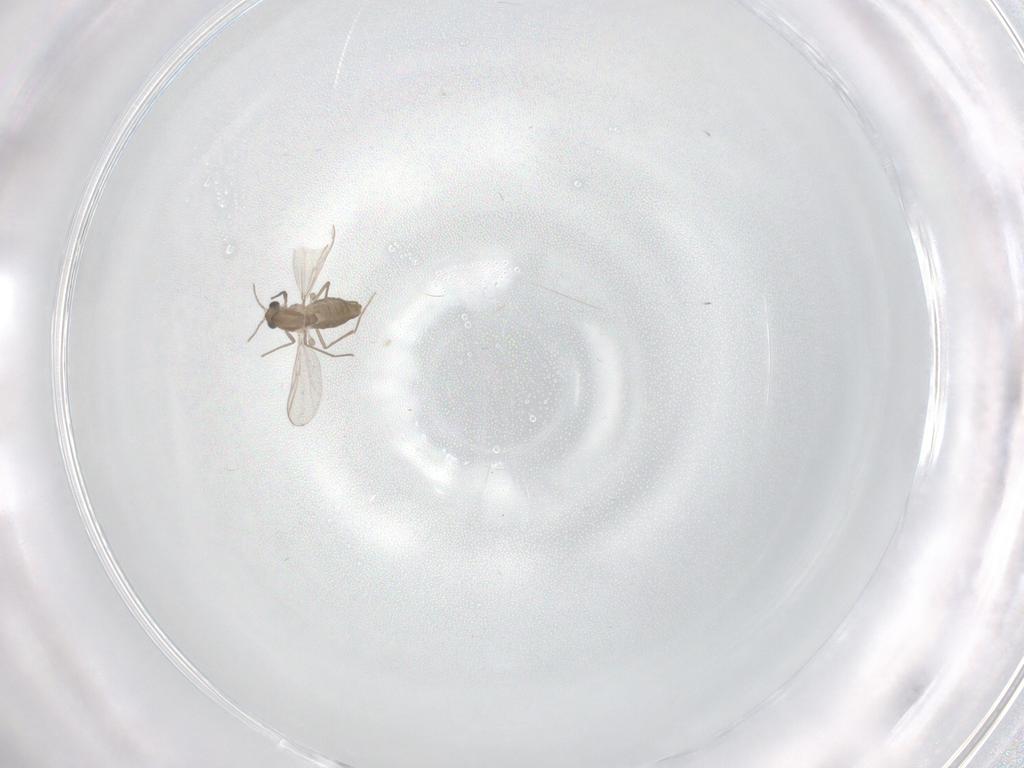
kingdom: Animalia
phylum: Arthropoda
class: Insecta
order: Diptera
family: Chironomidae
